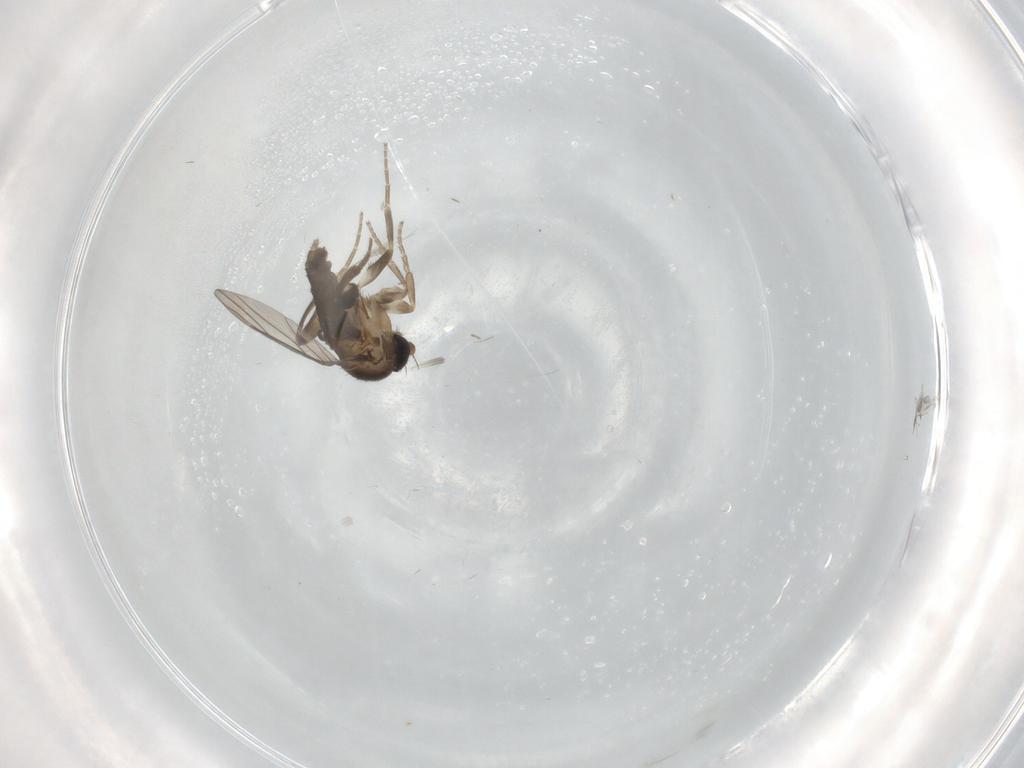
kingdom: Animalia
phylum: Arthropoda
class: Insecta
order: Diptera
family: Phoridae
